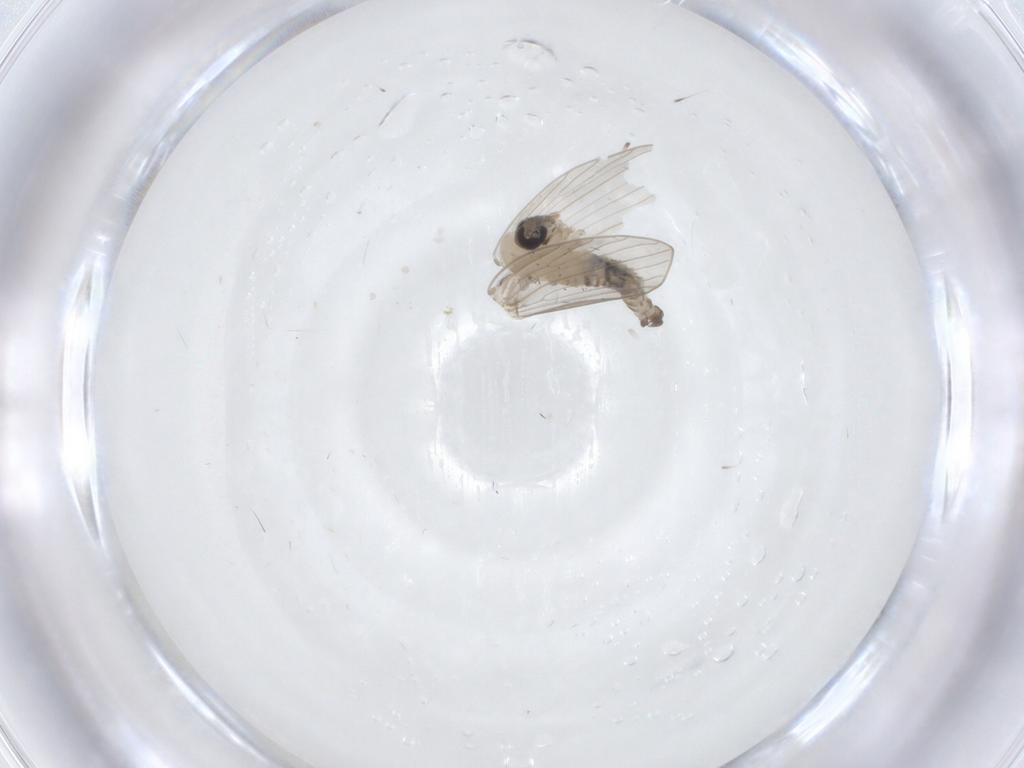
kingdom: Animalia
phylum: Arthropoda
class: Insecta
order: Diptera
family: Psychodidae
